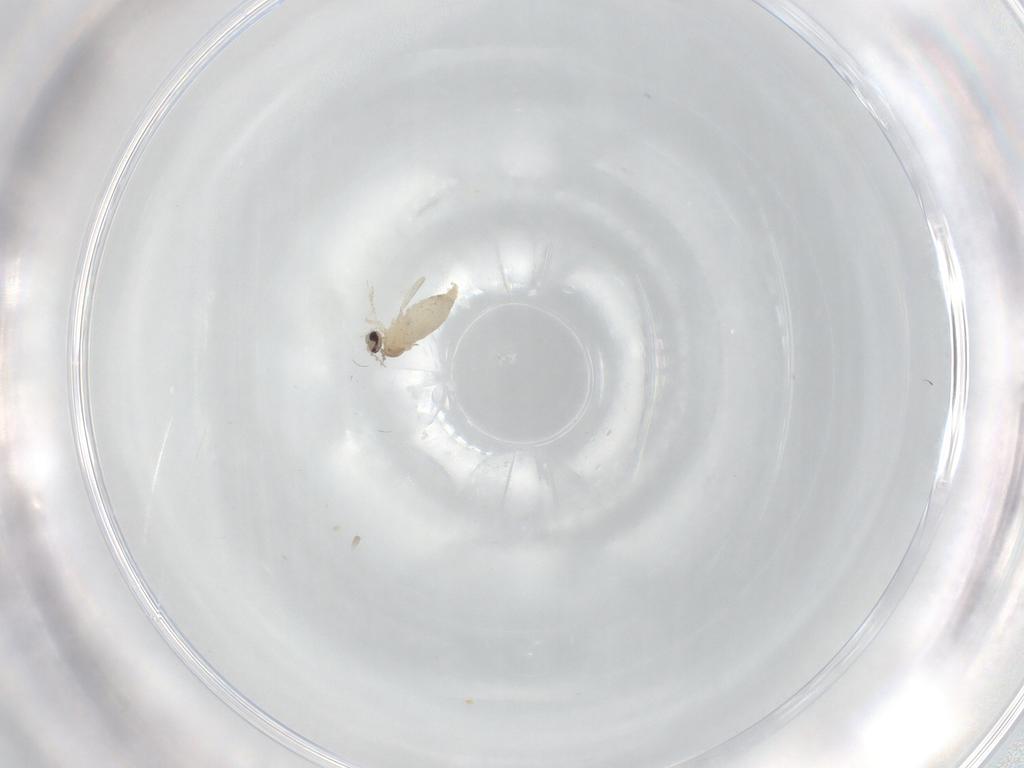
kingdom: Animalia
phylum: Arthropoda
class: Insecta
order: Diptera
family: Cecidomyiidae
